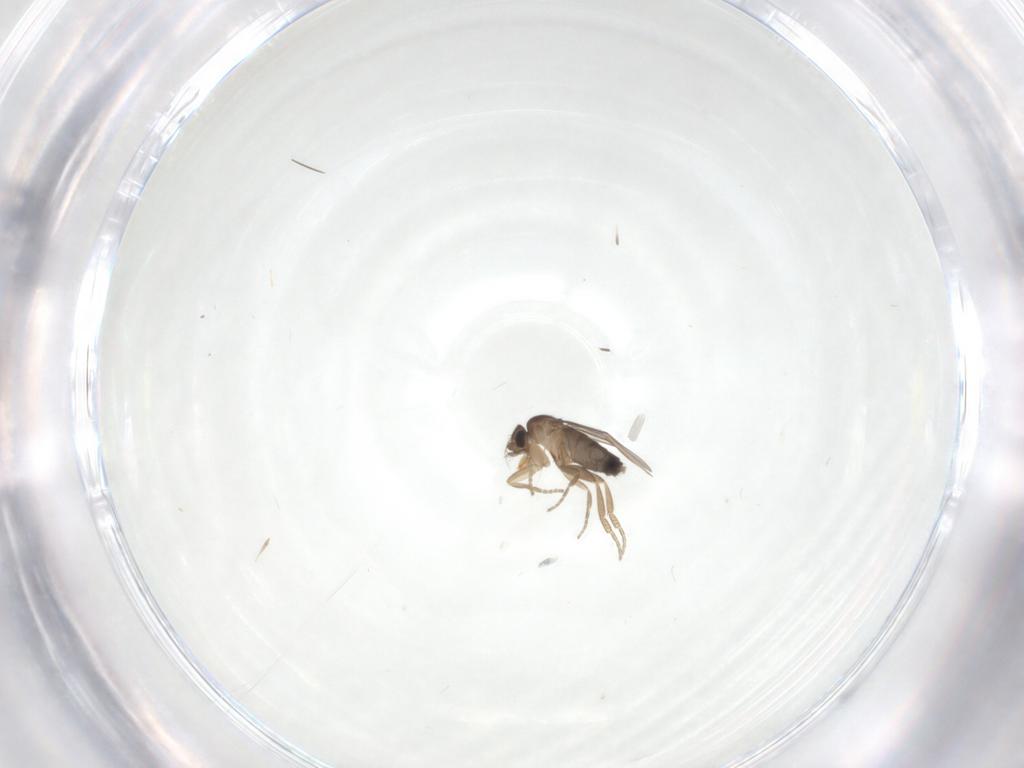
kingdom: Animalia
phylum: Arthropoda
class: Insecta
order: Diptera
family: Phoridae
